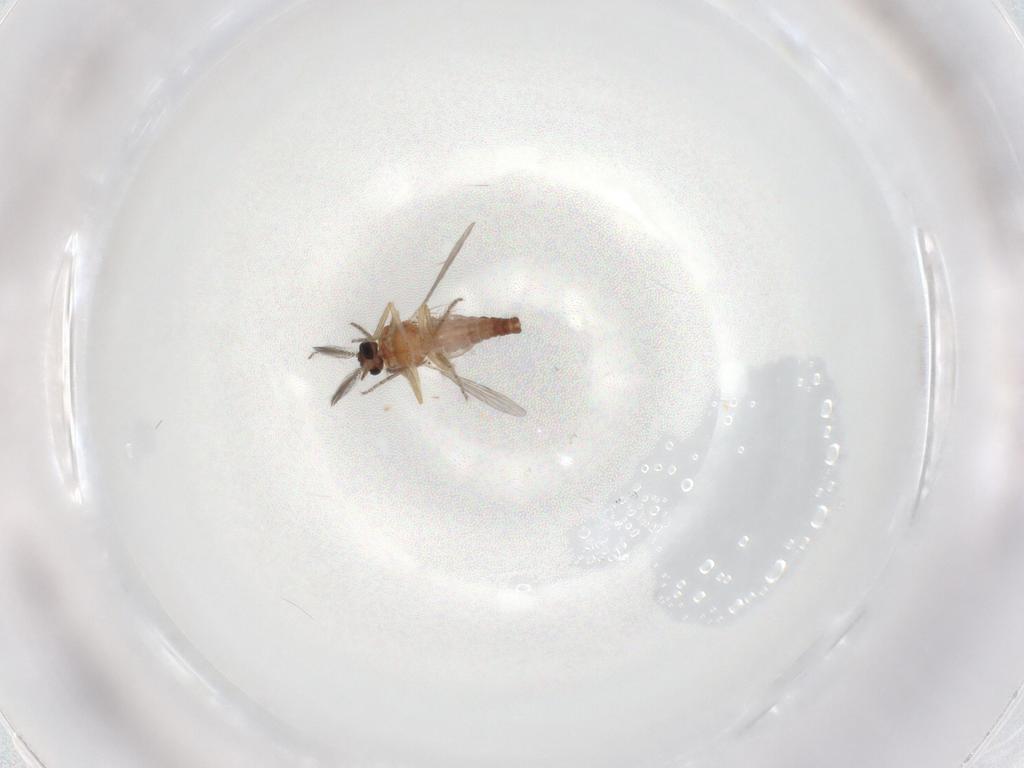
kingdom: Animalia
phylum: Arthropoda
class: Insecta
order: Diptera
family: Ceratopogonidae
